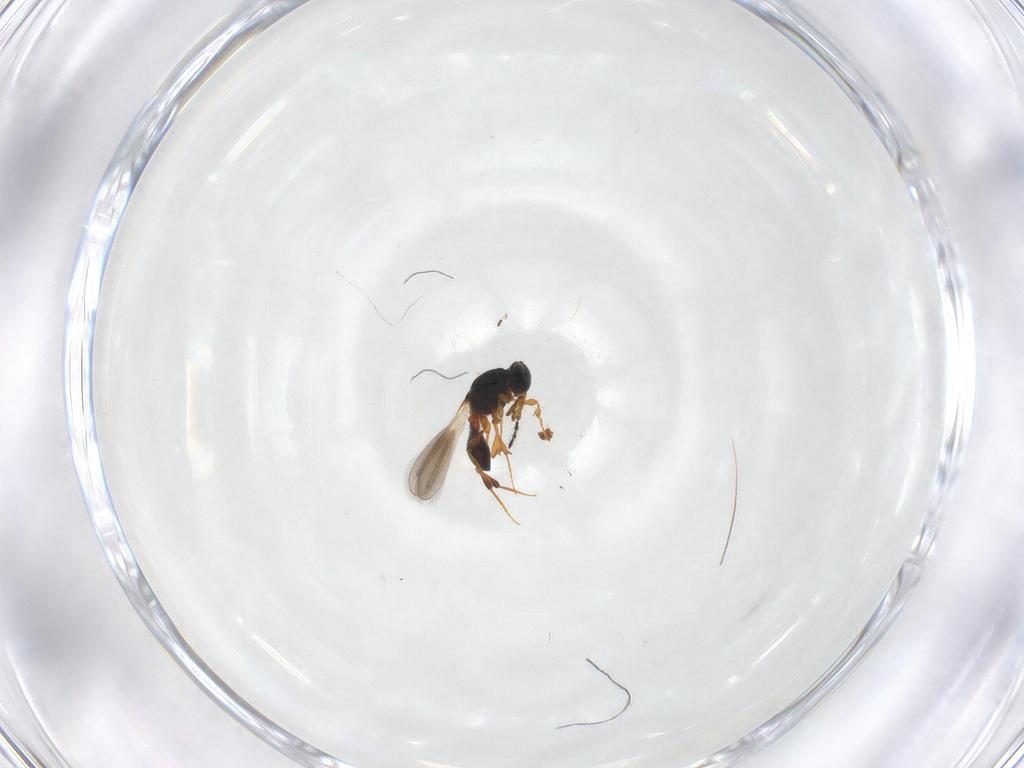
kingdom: Animalia
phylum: Arthropoda
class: Insecta
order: Hymenoptera
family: Platygastridae
